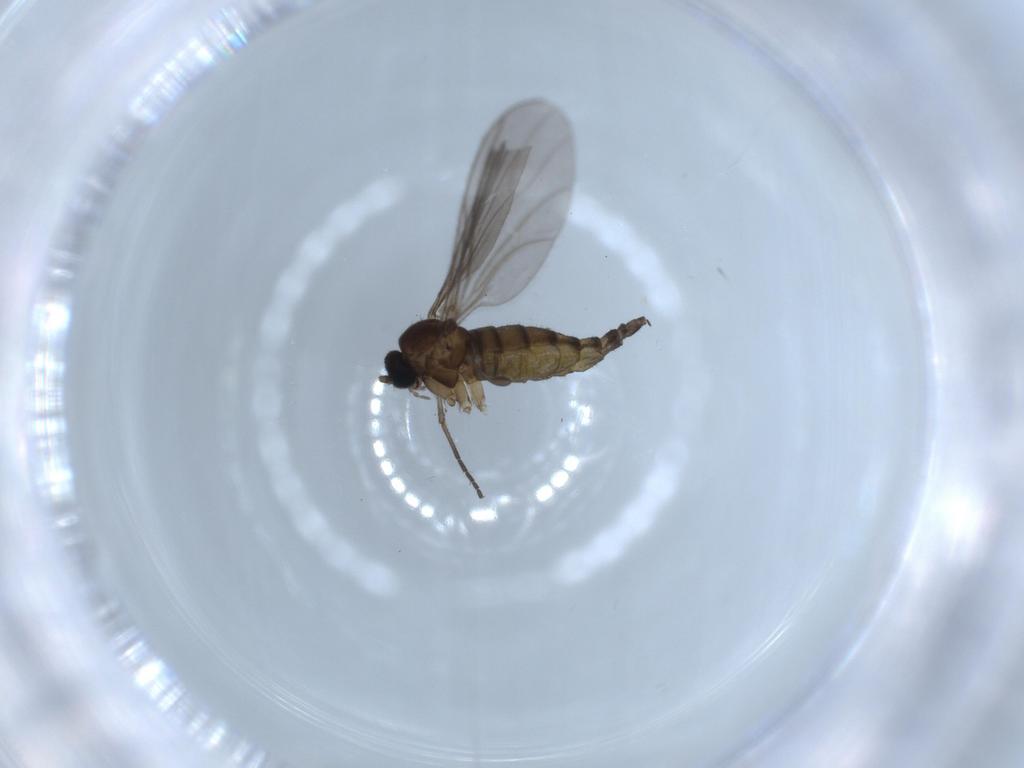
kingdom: Animalia
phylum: Arthropoda
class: Insecta
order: Diptera
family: Sciaridae
